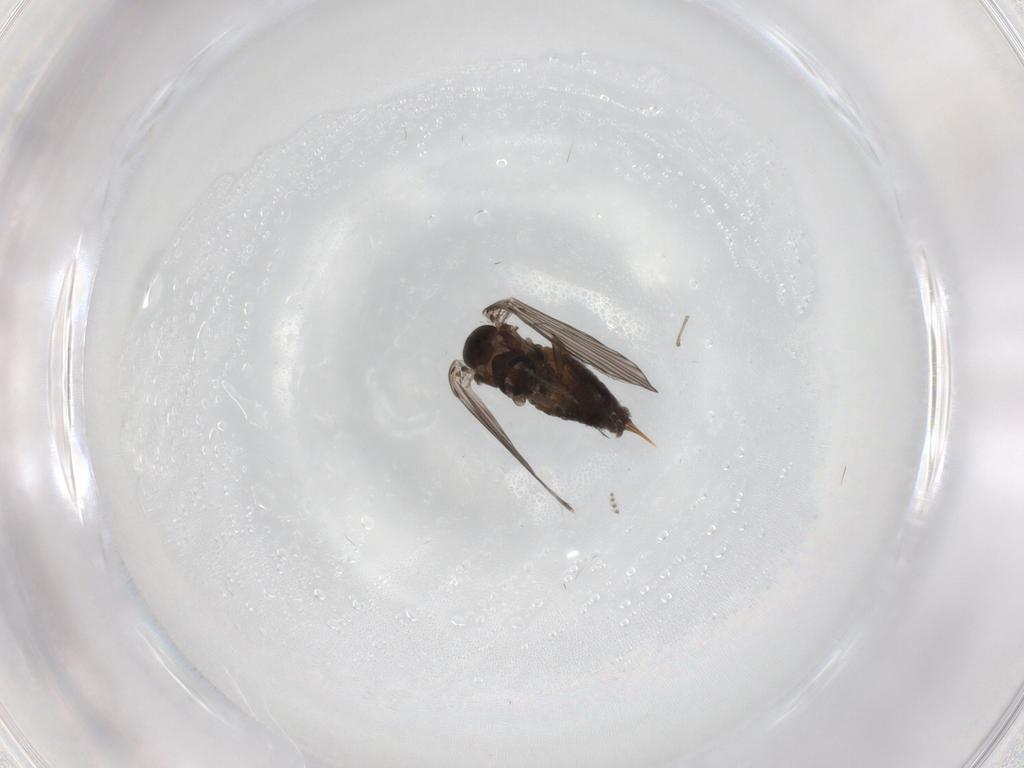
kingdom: Animalia
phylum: Arthropoda
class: Insecta
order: Diptera
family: Psychodidae
